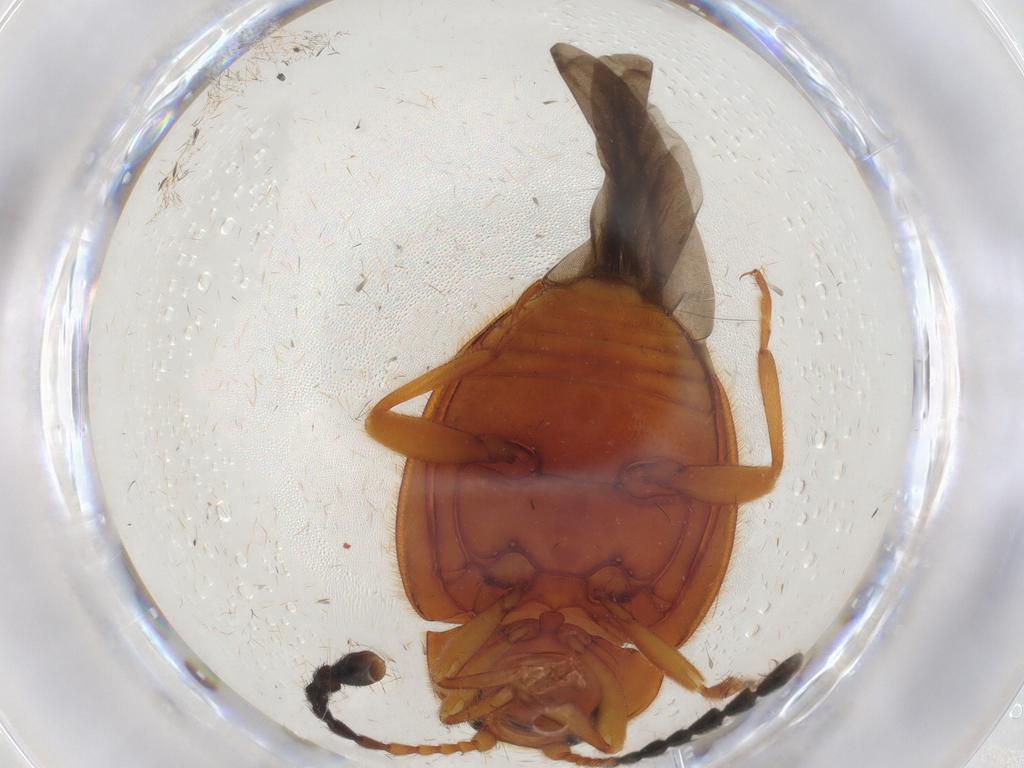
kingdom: Animalia
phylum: Arthropoda
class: Insecta
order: Coleoptera
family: Endomychidae
